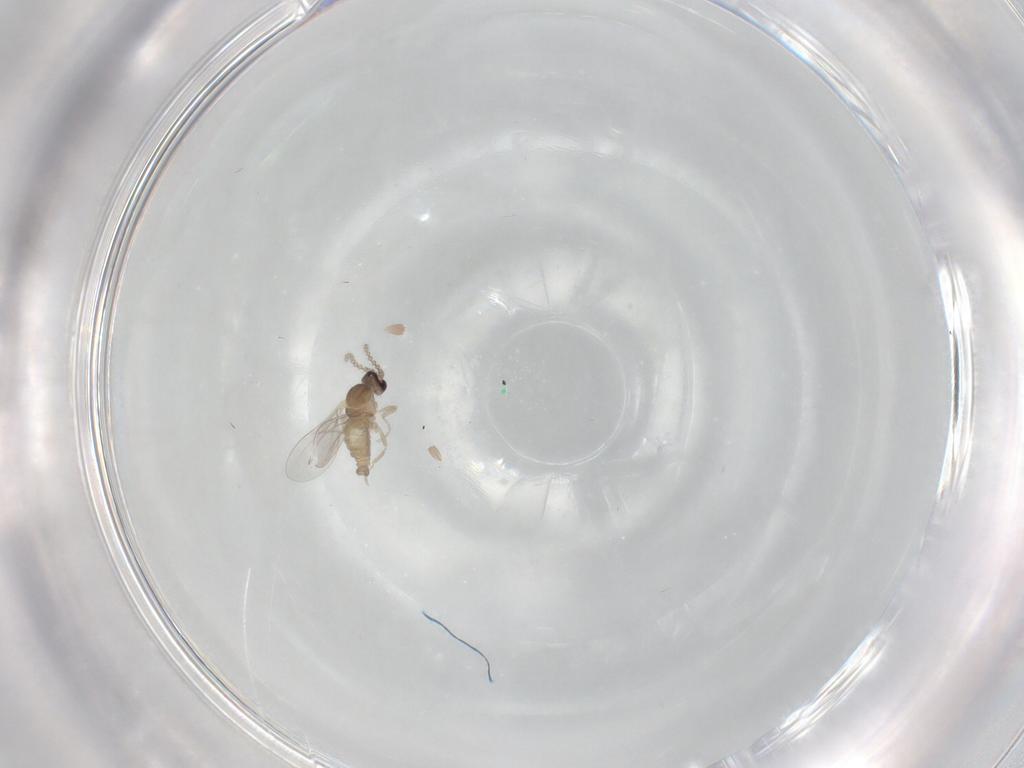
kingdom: Animalia
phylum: Arthropoda
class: Insecta
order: Diptera
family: Cecidomyiidae
